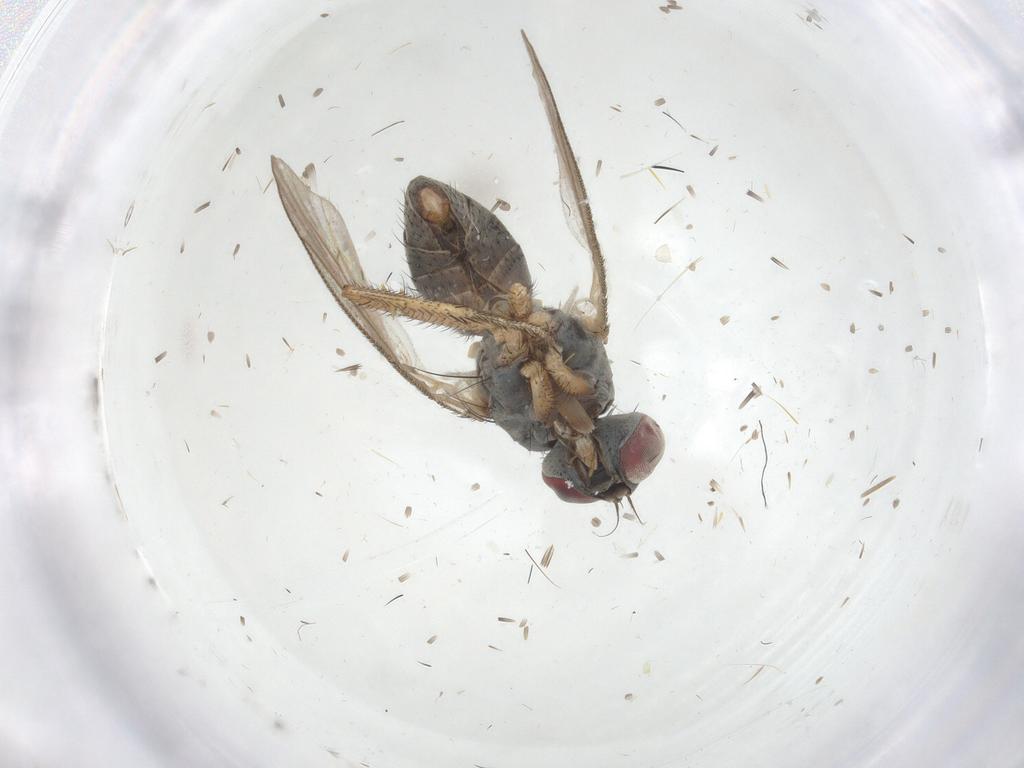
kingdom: Animalia
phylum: Arthropoda
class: Insecta
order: Diptera
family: Muscidae
